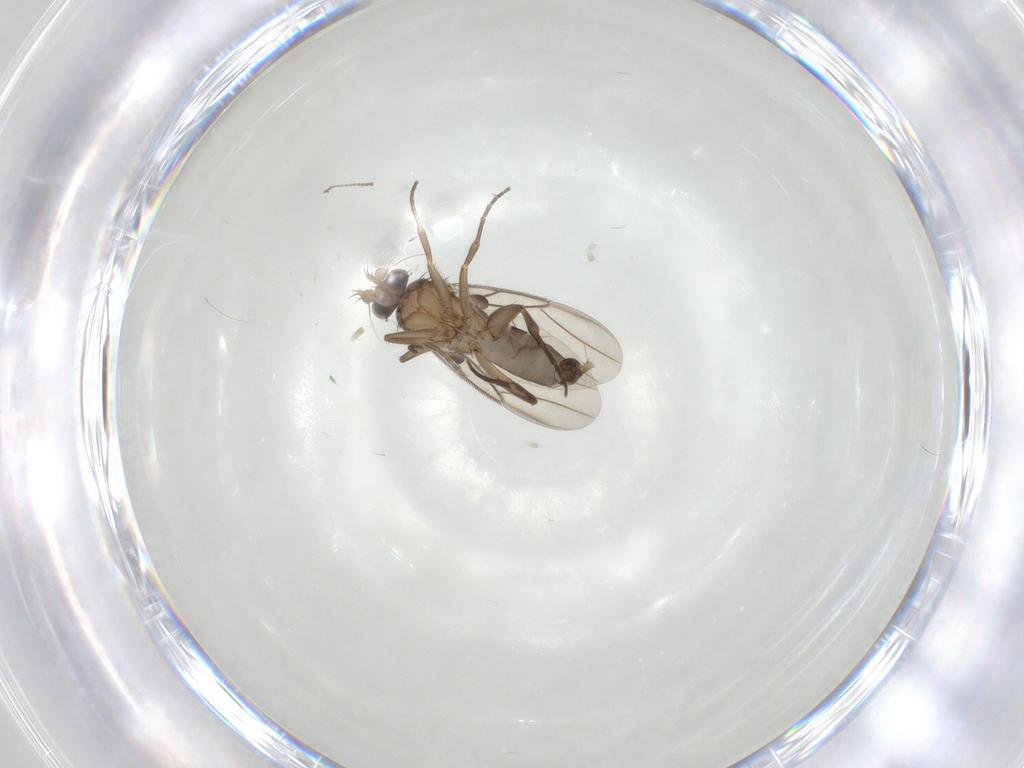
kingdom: Animalia
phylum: Arthropoda
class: Insecta
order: Diptera
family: Phoridae
